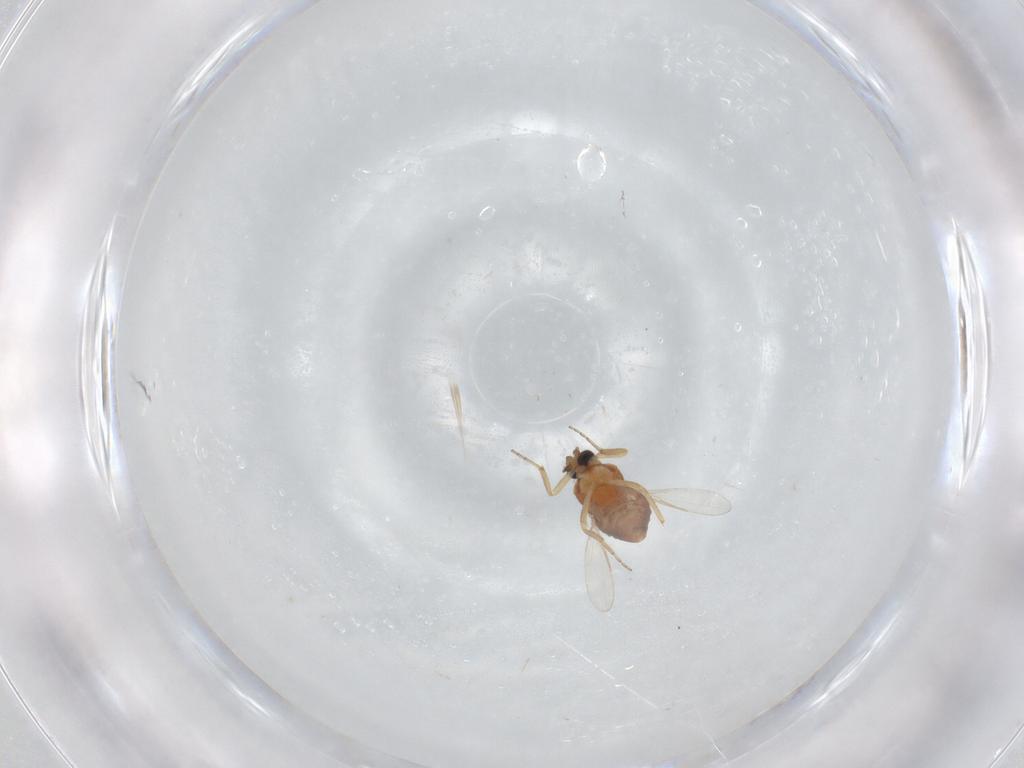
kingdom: Animalia
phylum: Arthropoda
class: Insecta
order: Diptera
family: Ceratopogonidae
